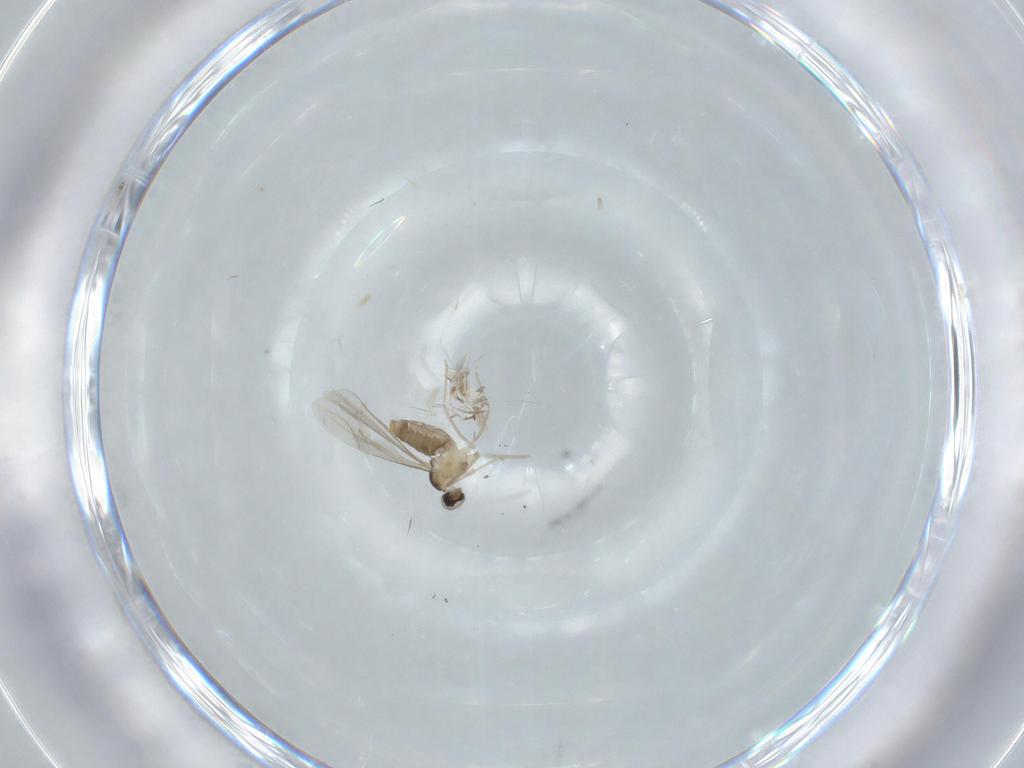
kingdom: Animalia
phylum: Arthropoda
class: Insecta
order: Diptera
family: Cecidomyiidae
